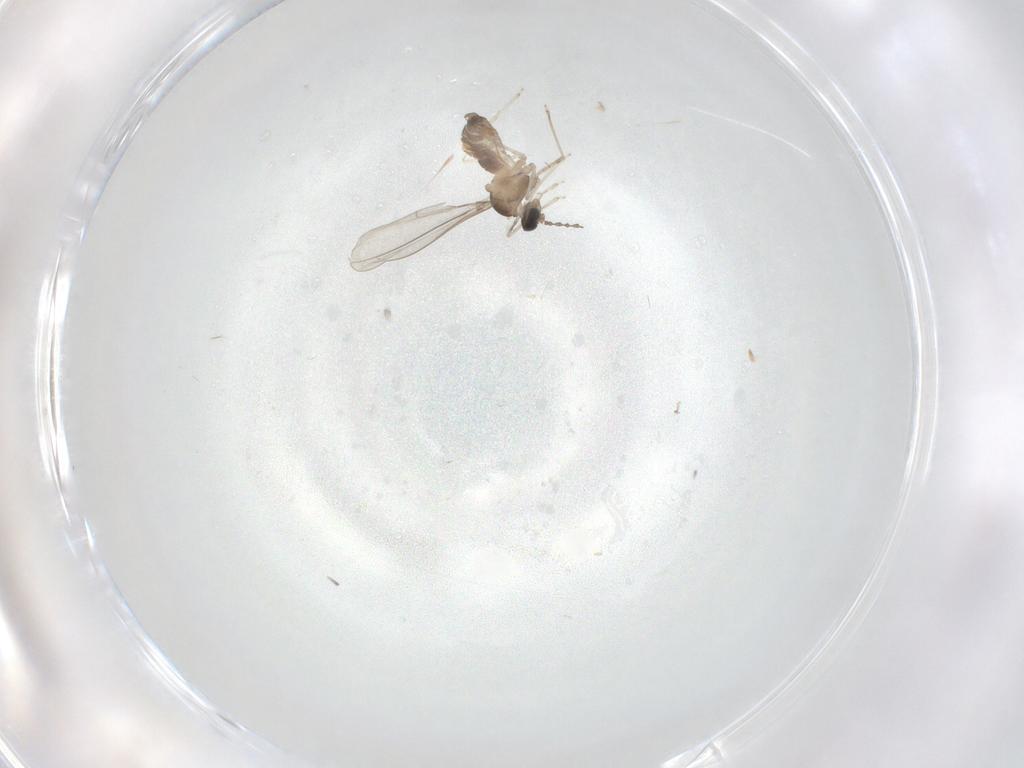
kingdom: Animalia
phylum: Arthropoda
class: Insecta
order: Diptera
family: Cecidomyiidae
